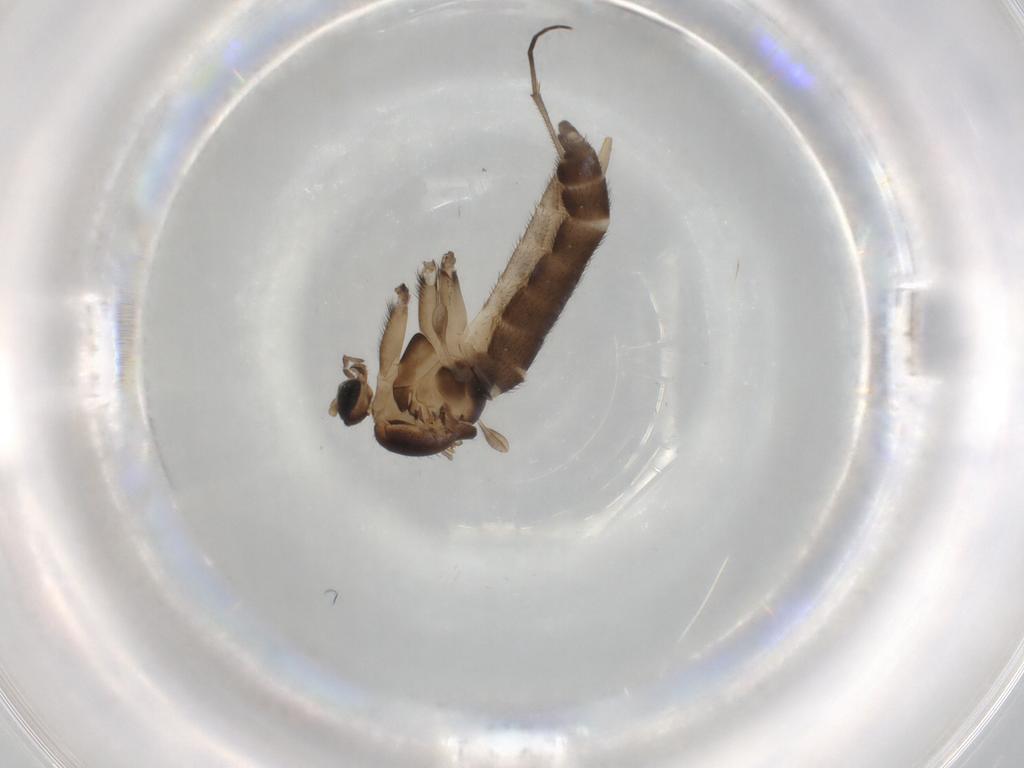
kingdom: Animalia
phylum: Arthropoda
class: Insecta
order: Diptera
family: Sciaridae
